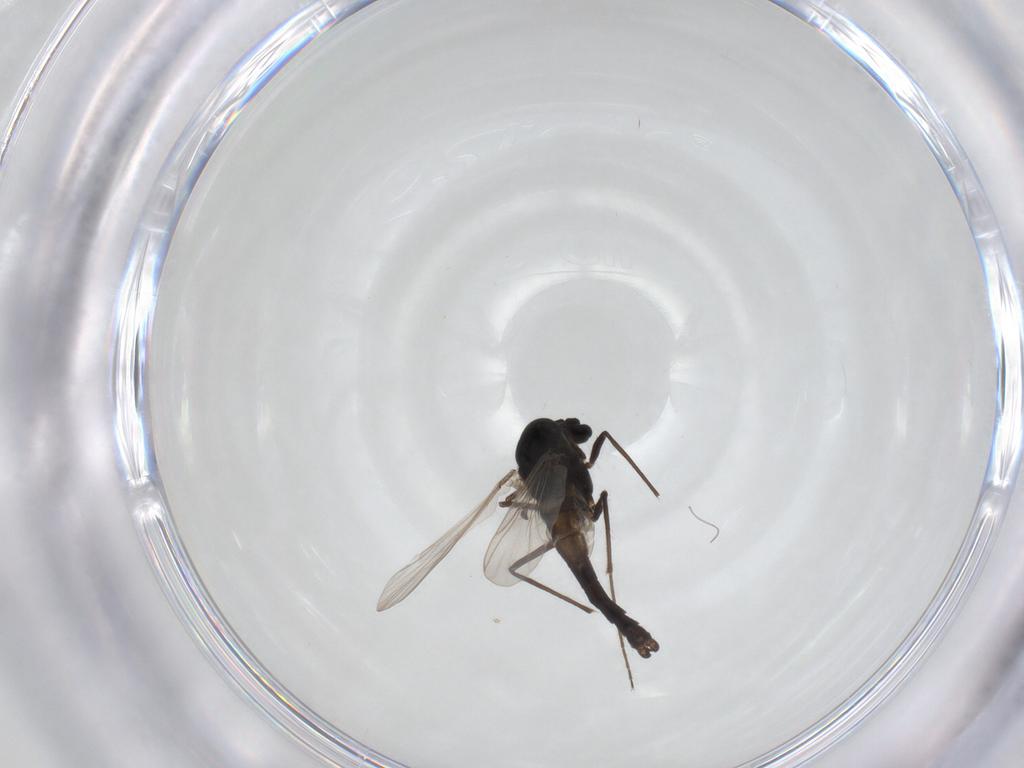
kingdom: Animalia
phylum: Arthropoda
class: Insecta
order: Diptera
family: Chironomidae
